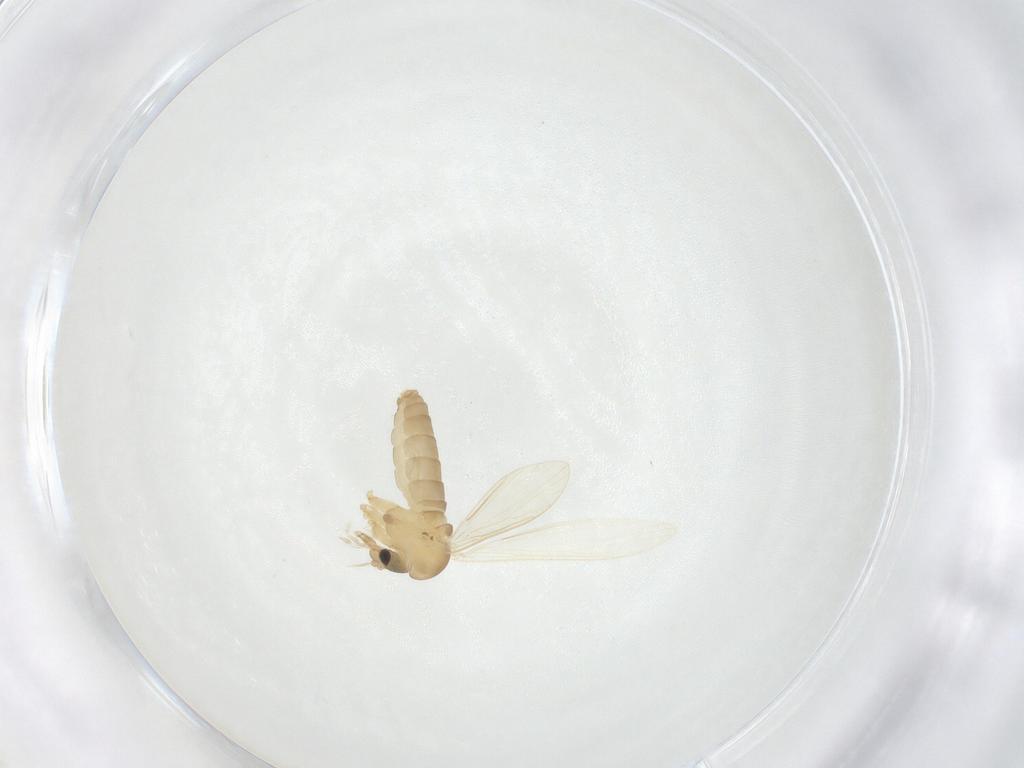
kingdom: Animalia
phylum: Arthropoda
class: Insecta
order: Diptera
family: Psychodidae
